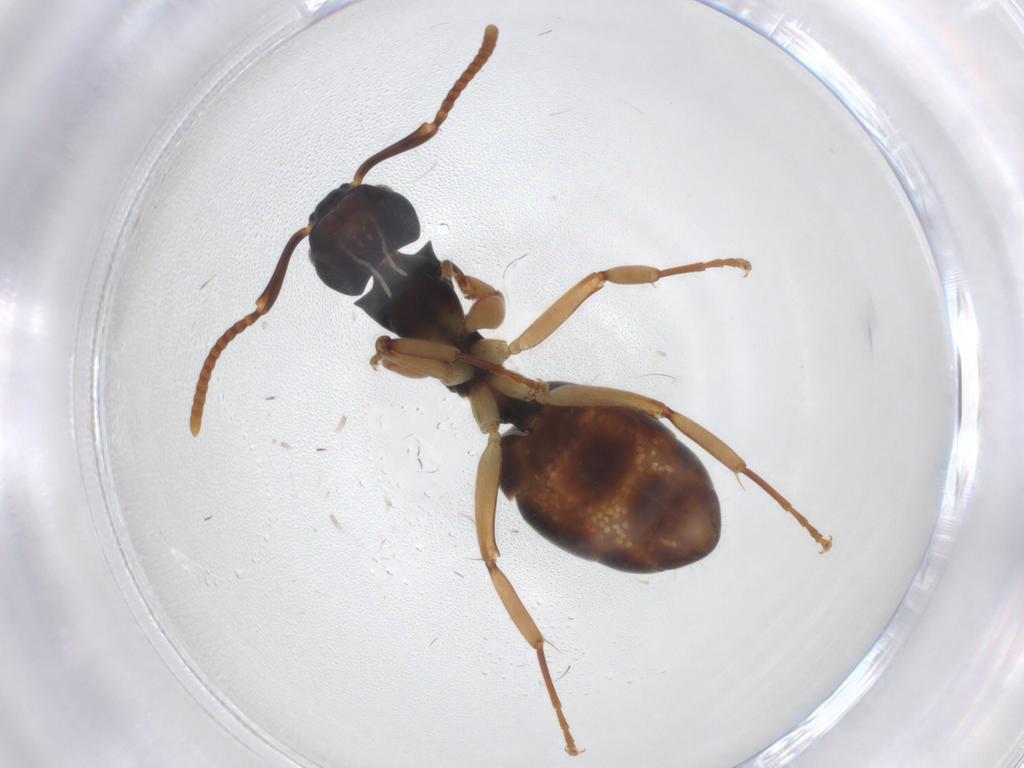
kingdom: Animalia
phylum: Arthropoda
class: Insecta
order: Hymenoptera
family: Formicidae
